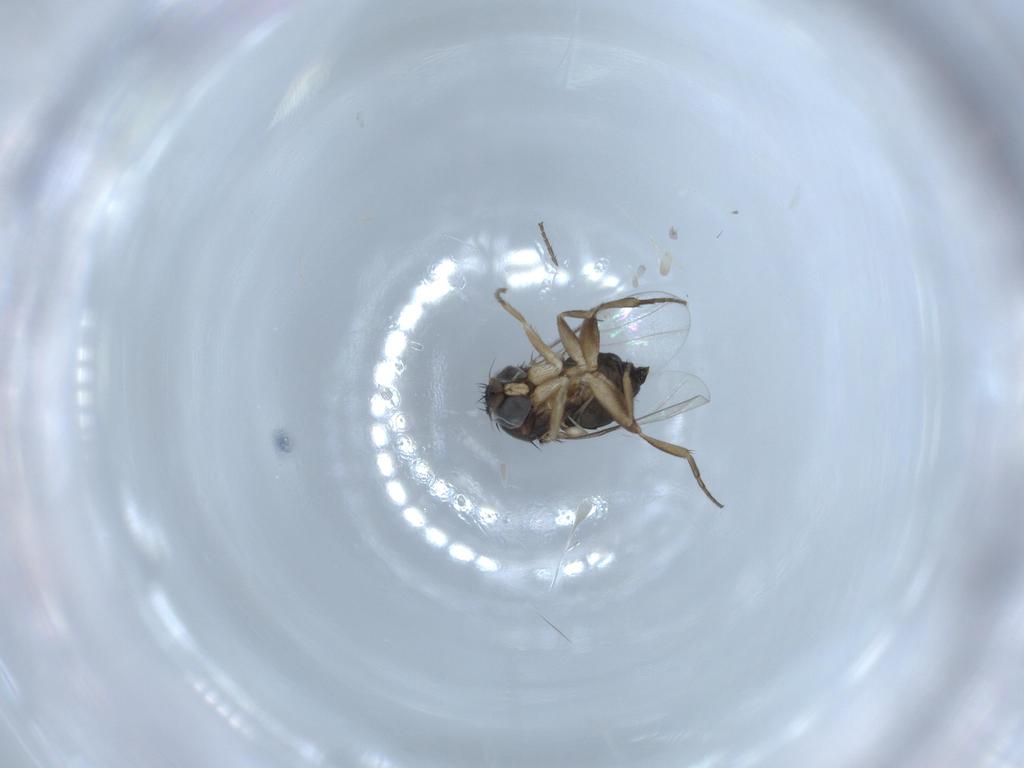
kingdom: Animalia
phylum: Arthropoda
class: Insecta
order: Diptera
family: Phoridae
